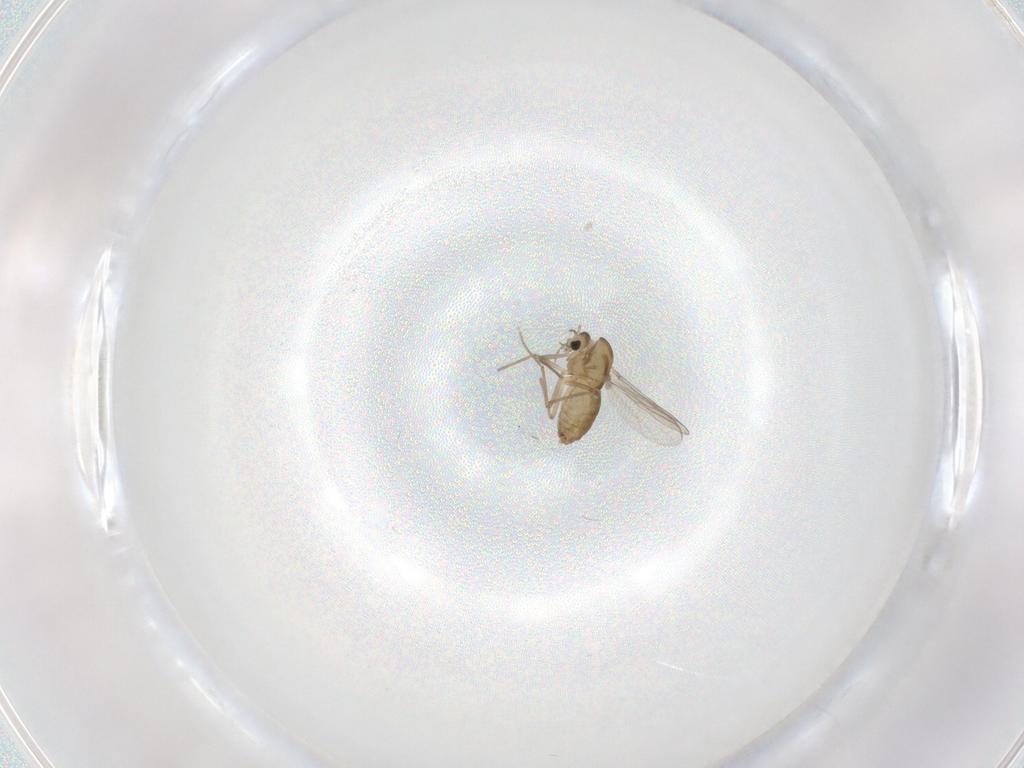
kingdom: Animalia
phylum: Arthropoda
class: Insecta
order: Diptera
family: Chironomidae
